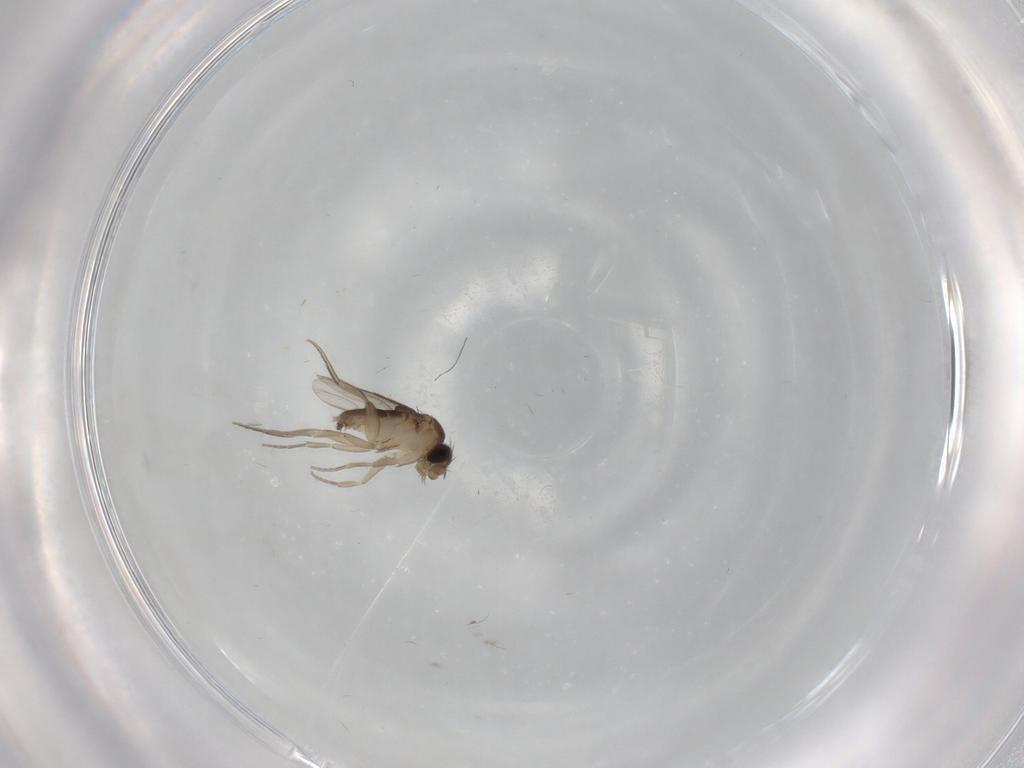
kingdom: Animalia
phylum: Arthropoda
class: Insecta
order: Diptera
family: Phoridae
